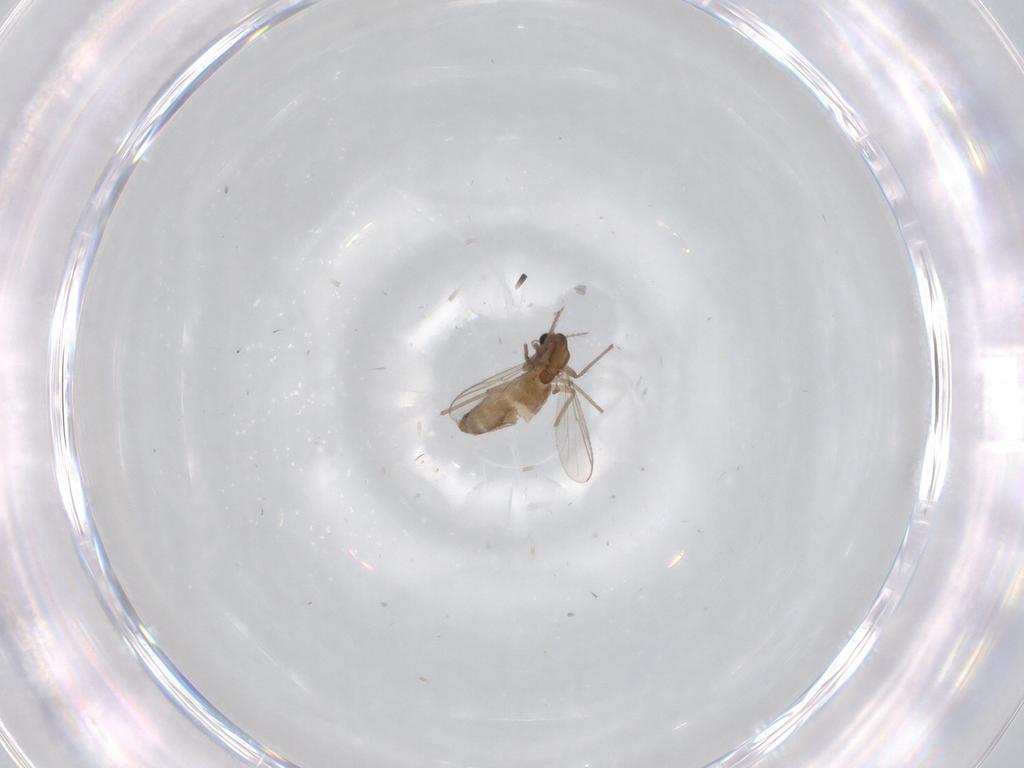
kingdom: Animalia
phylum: Arthropoda
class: Insecta
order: Diptera
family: Chironomidae
